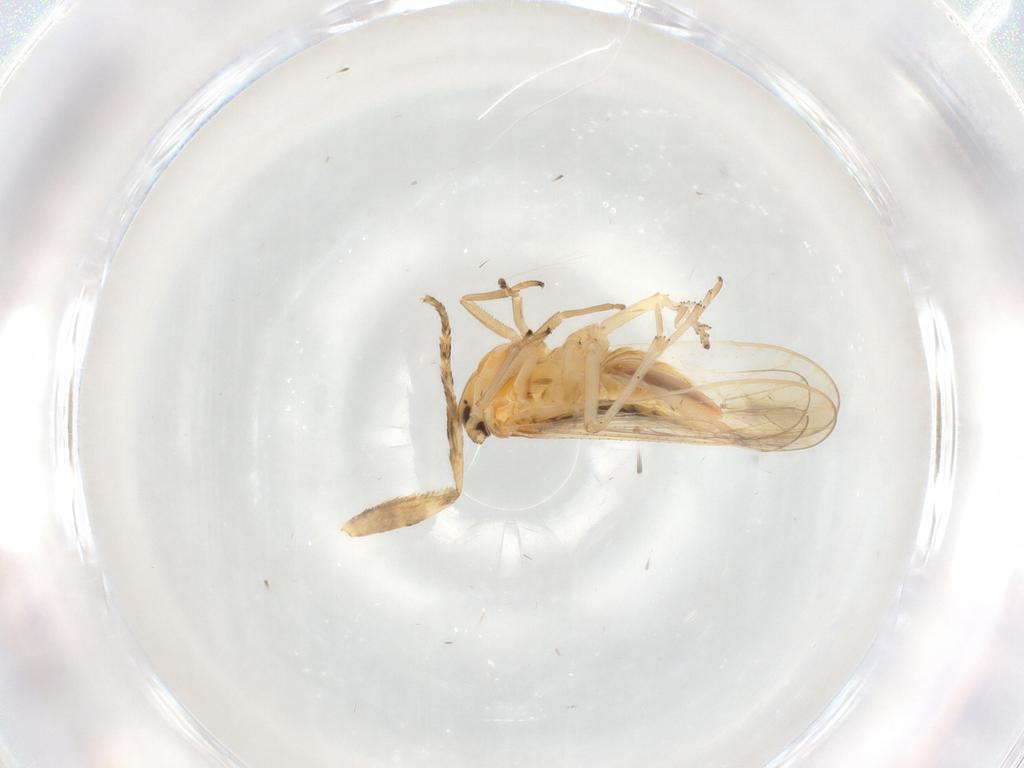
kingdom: Animalia
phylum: Arthropoda
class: Insecta
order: Hemiptera
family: Delphacidae
